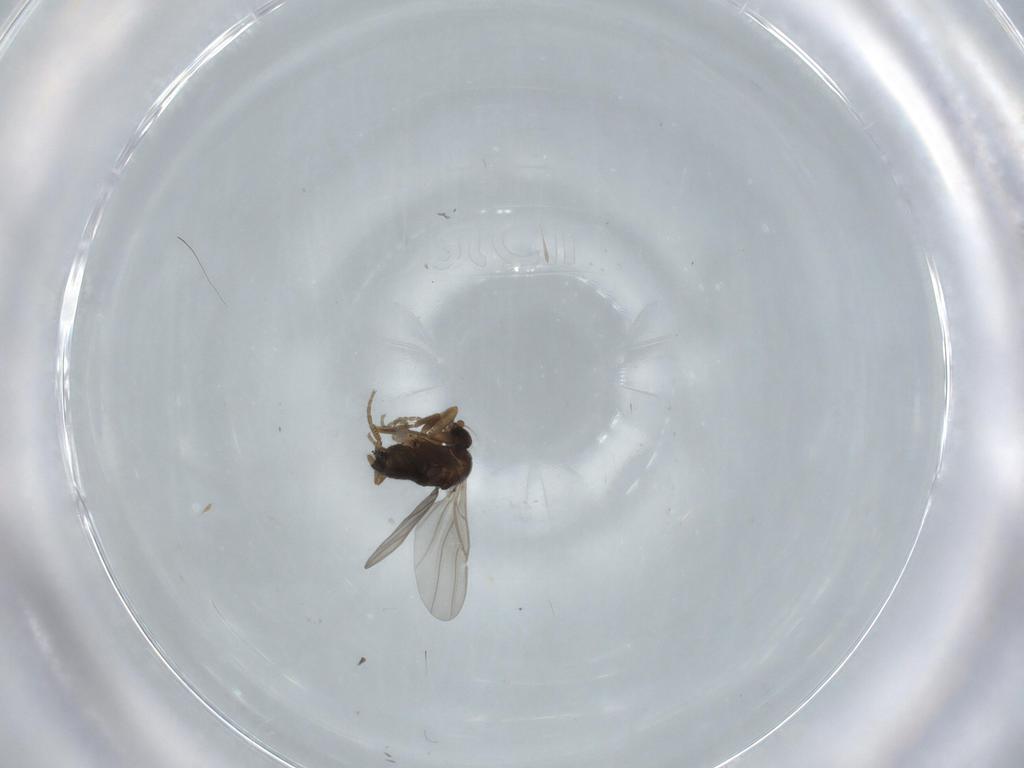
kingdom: Animalia
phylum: Arthropoda
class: Insecta
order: Diptera
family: Phoridae
